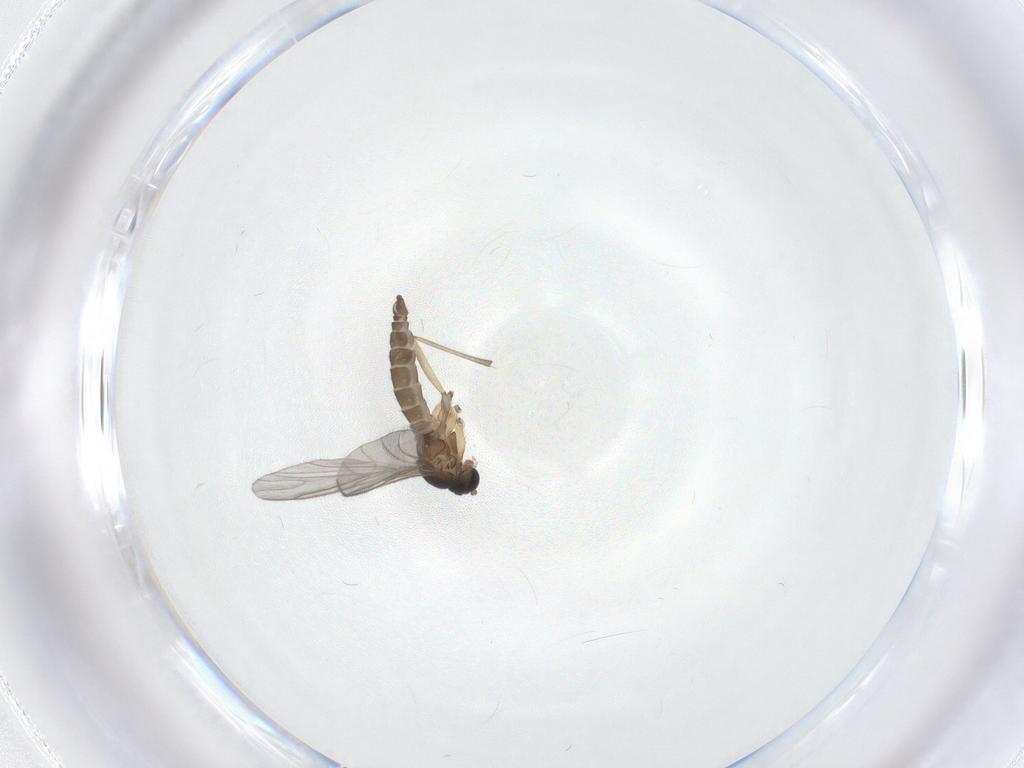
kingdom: Animalia
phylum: Arthropoda
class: Insecta
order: Diptera
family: Sciaridae
